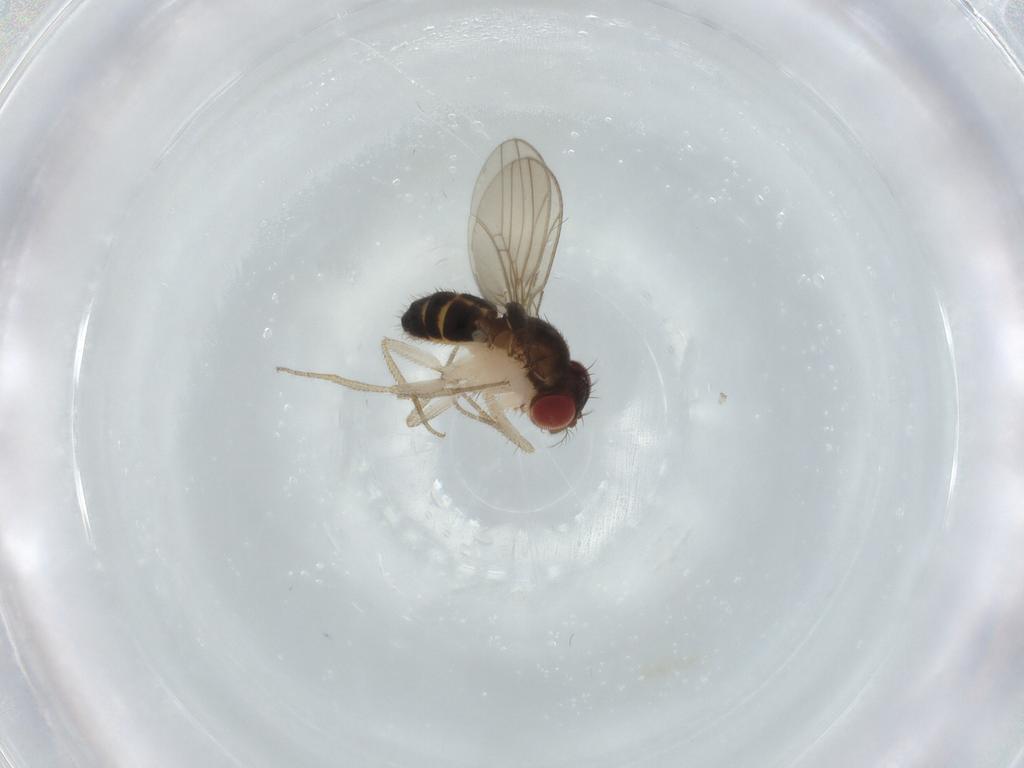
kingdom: Animalia
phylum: Arthropoda
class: Insecta
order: Diptera
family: Drosophilidae
